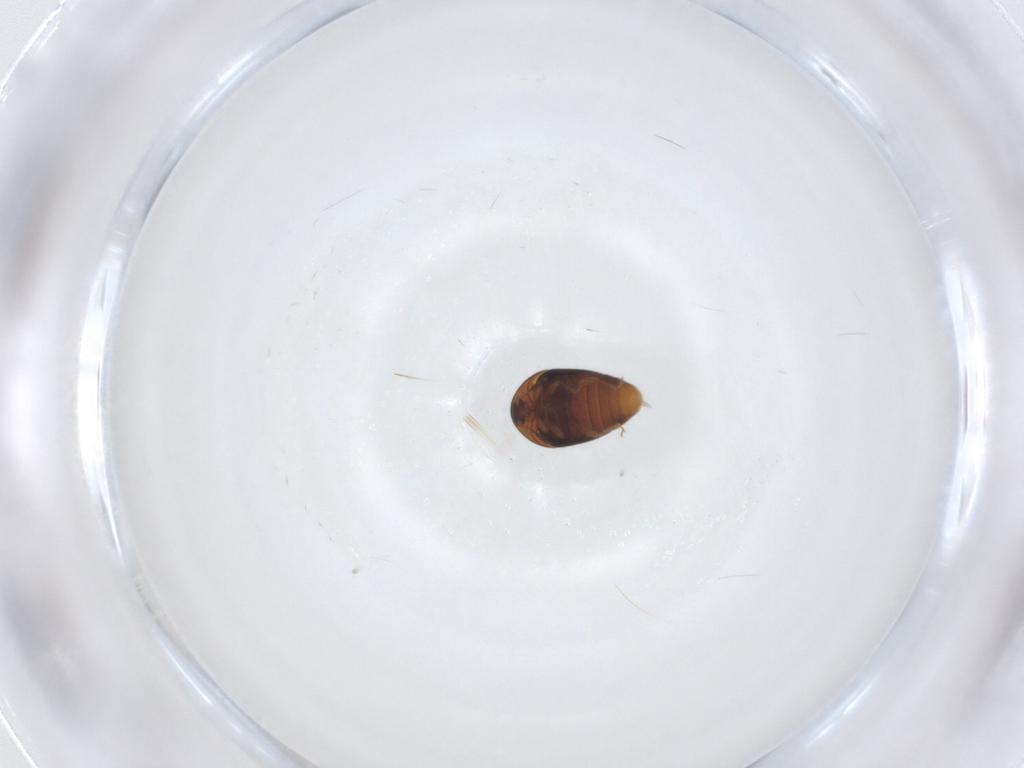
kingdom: Animalia
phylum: Arthropoda
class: Insecta
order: Coleoptera
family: Corylophidae
